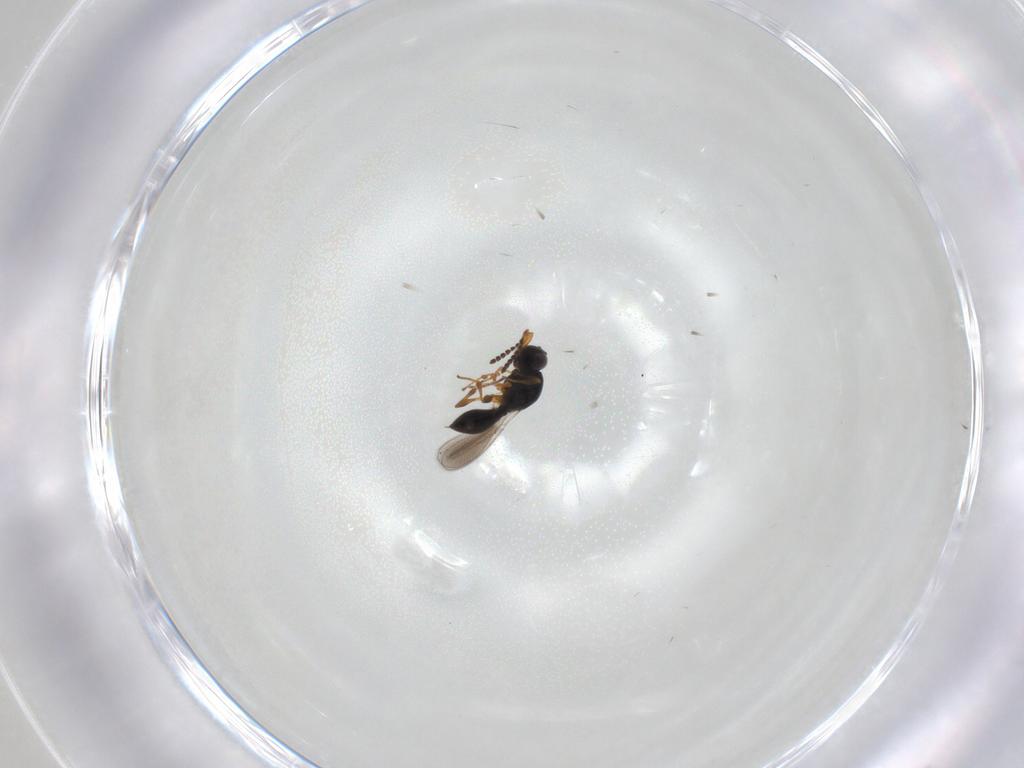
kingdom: Animalia
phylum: Arthropoda
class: Insecta
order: Hymenoptera
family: Platygastridae
